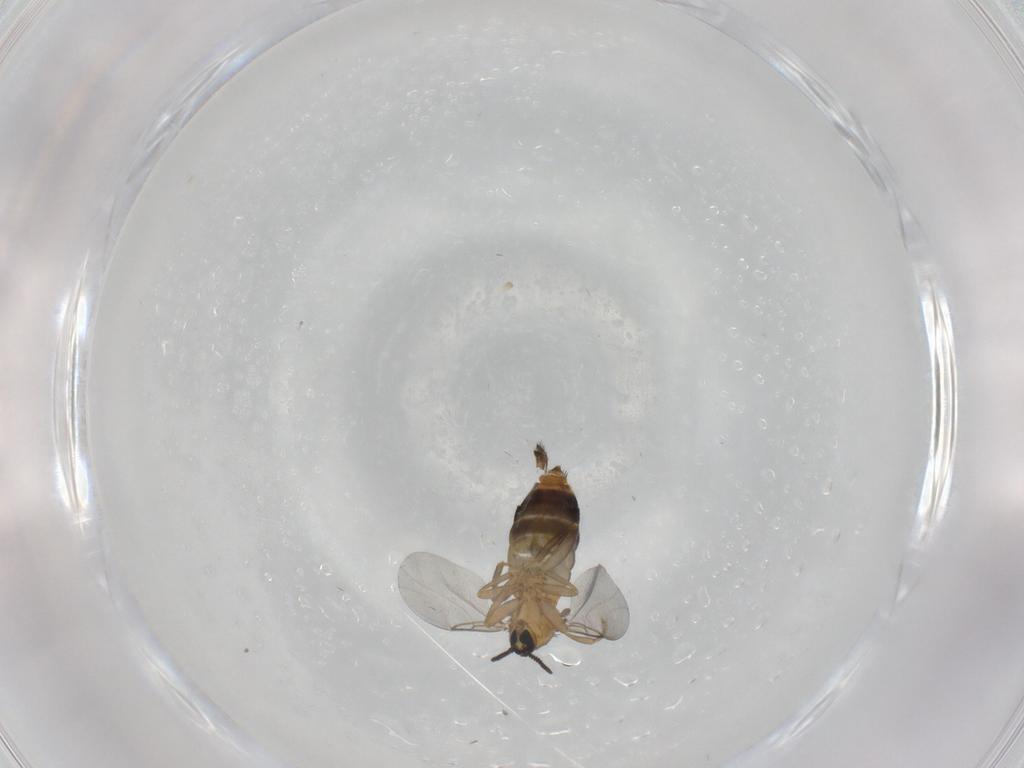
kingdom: Animalia
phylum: Arthropoda
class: Insecta
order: Diptera
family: Scatopsidae
